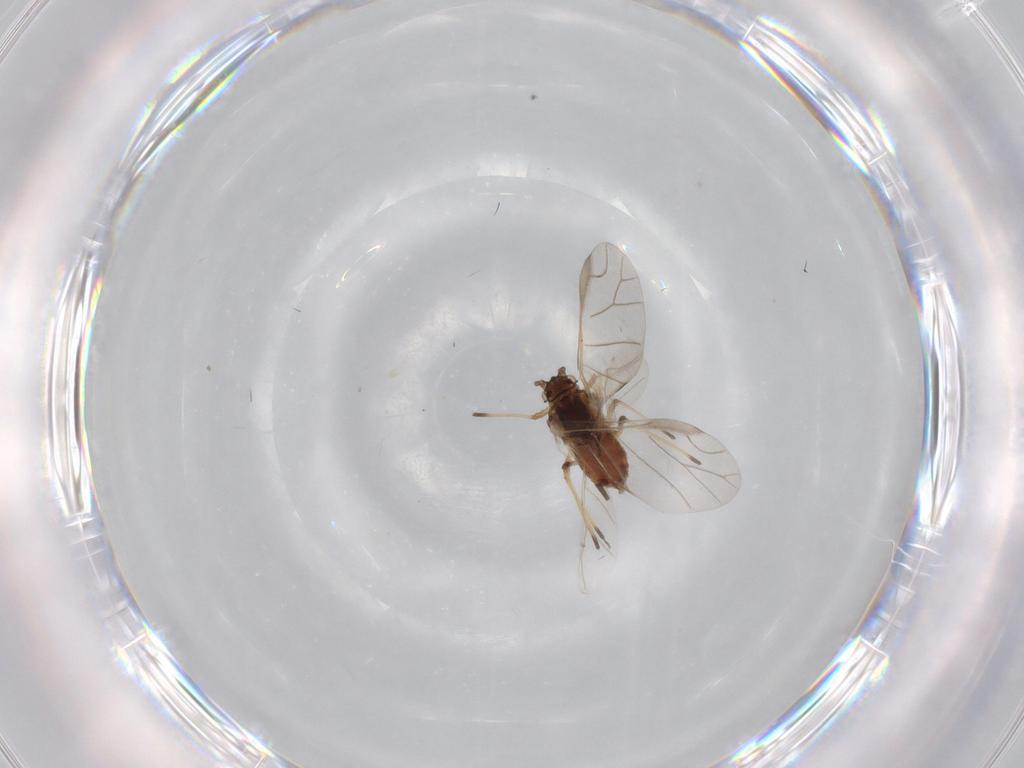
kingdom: Animalia
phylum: Arthropoda
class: Insecta
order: Hemiptera
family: Aphididae
